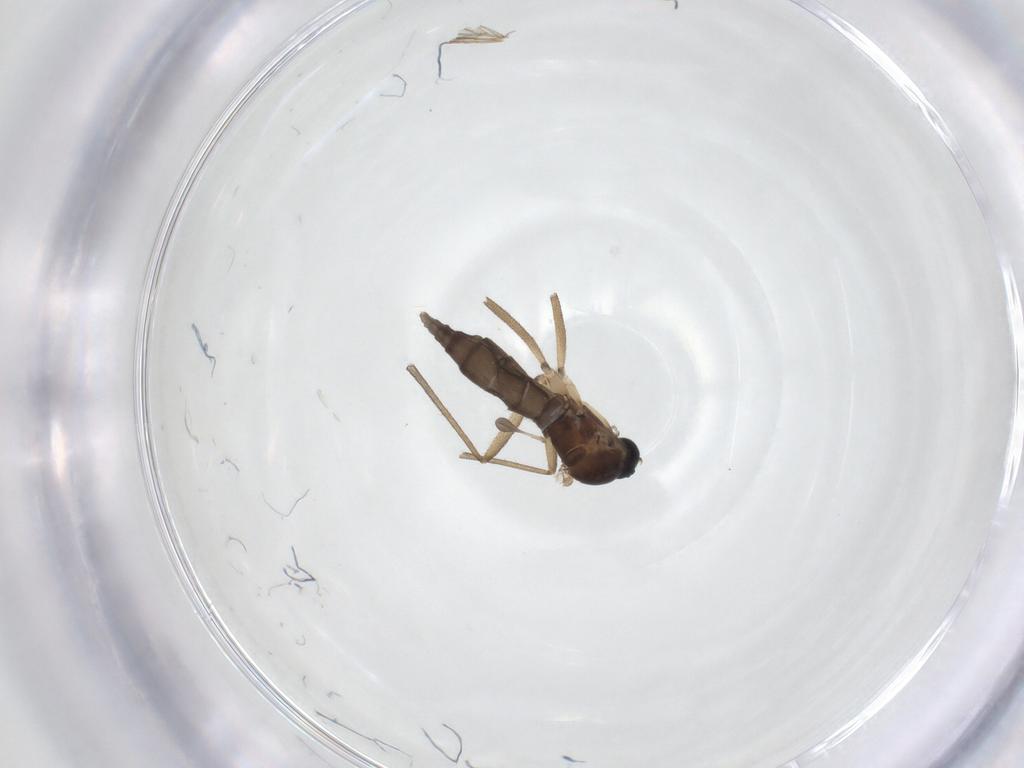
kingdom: Animalia
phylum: Arthropoda
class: Insecta
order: Diptera
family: Sciaridae
